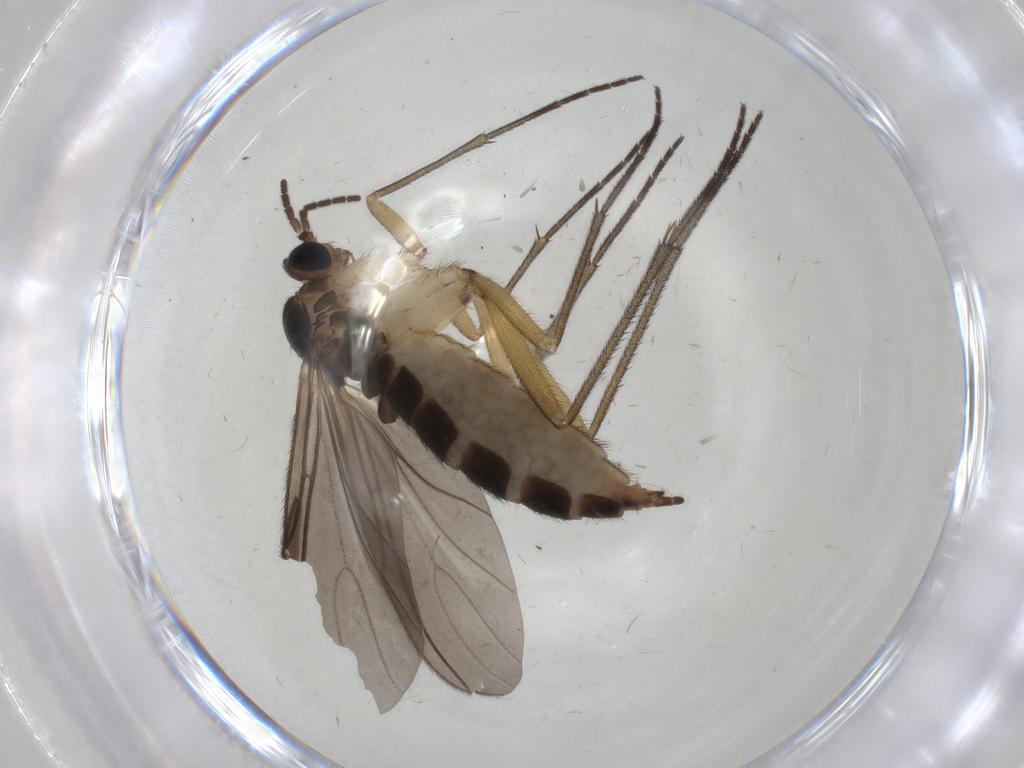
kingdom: Animalia
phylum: Arthropoda
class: Insecta
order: Diptera
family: Sciaridae
